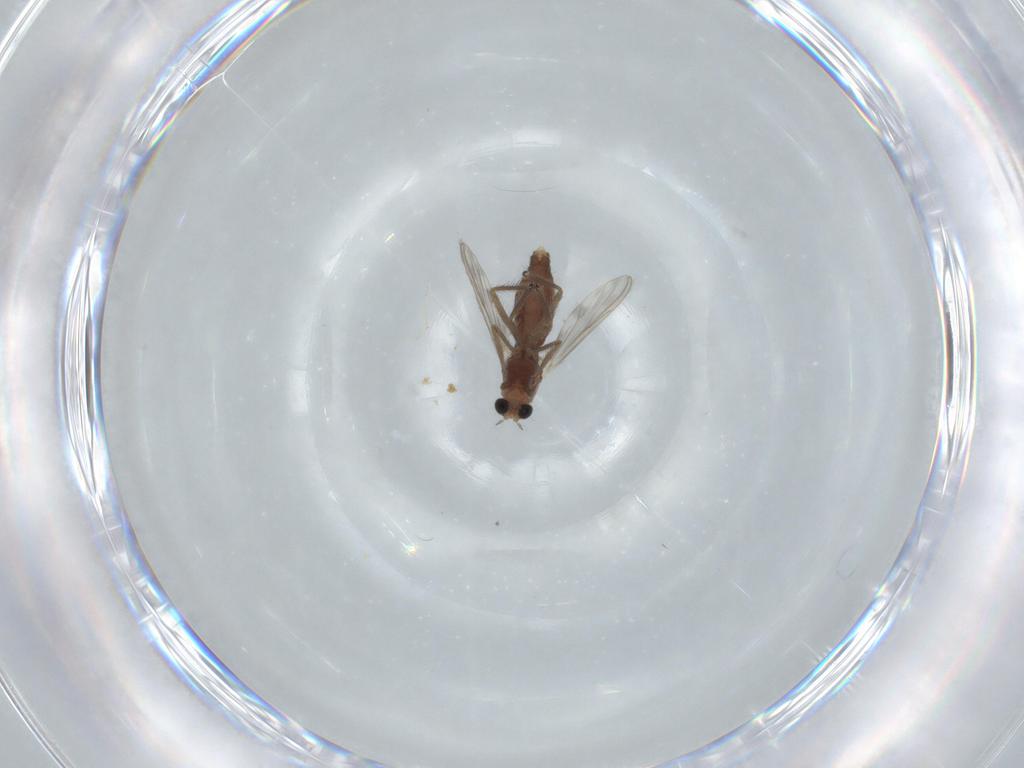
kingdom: Animalia
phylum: Arthropoda
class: Insecta
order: Diptera
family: Chironomidae
